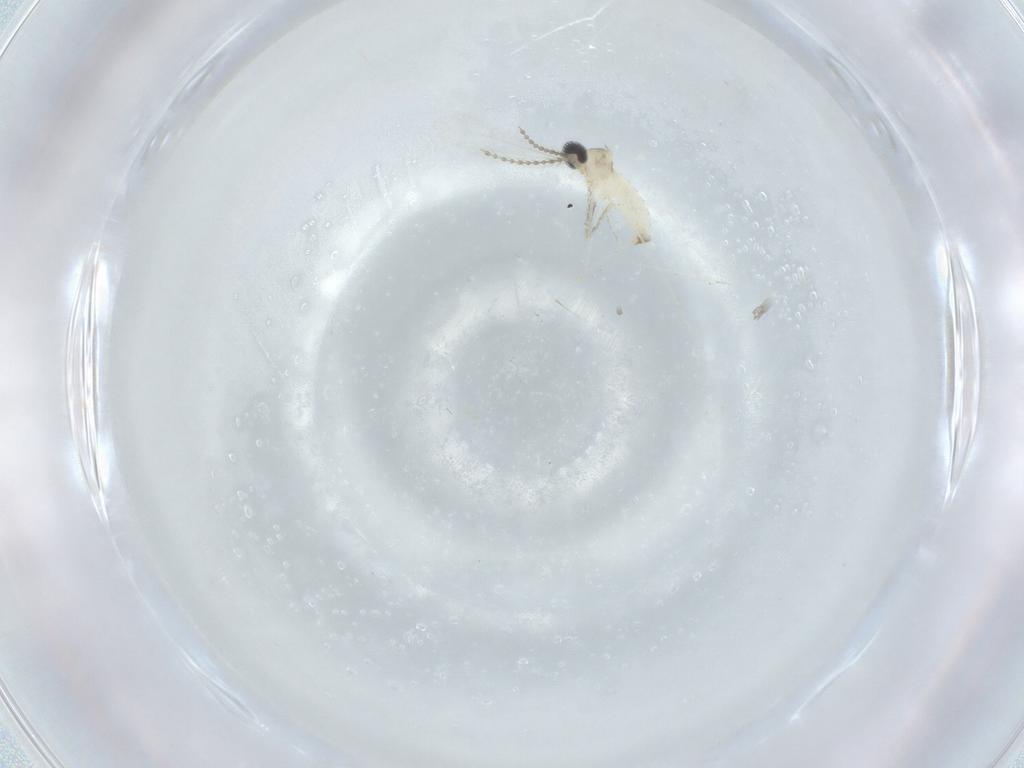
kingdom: Animalia
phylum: Arthropoda
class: Insecta
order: Diptera
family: Cecidomyiidae
